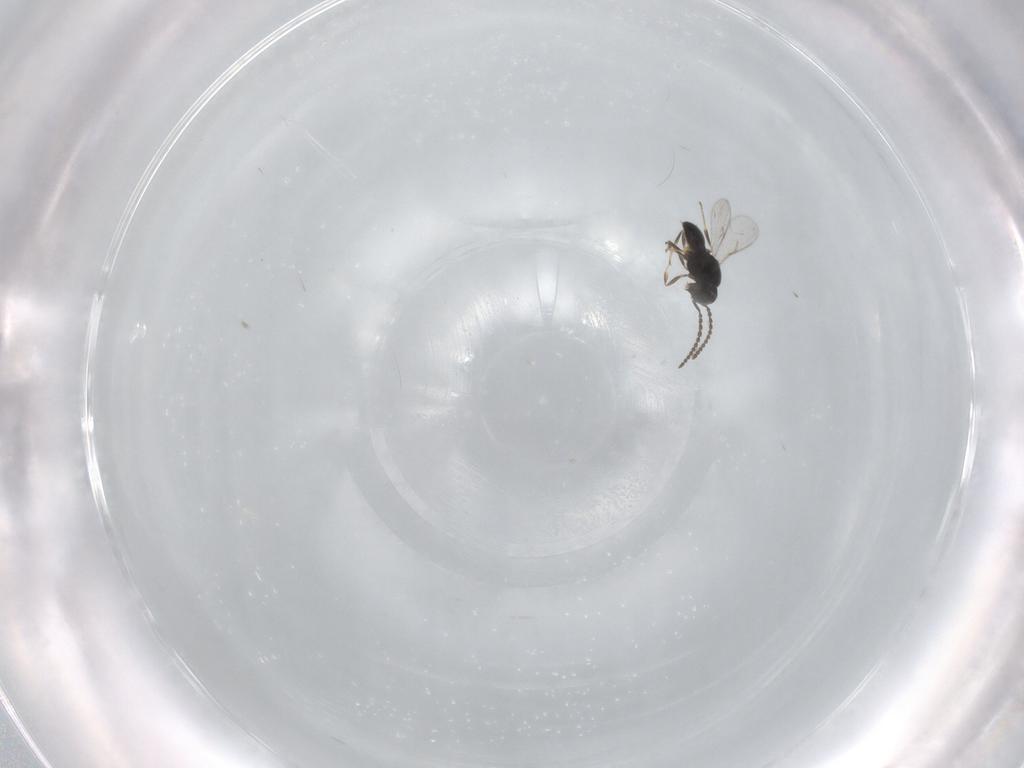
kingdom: Animalia
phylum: Arthropoda
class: Insecta
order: Hymenoptera
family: Scelionidae
